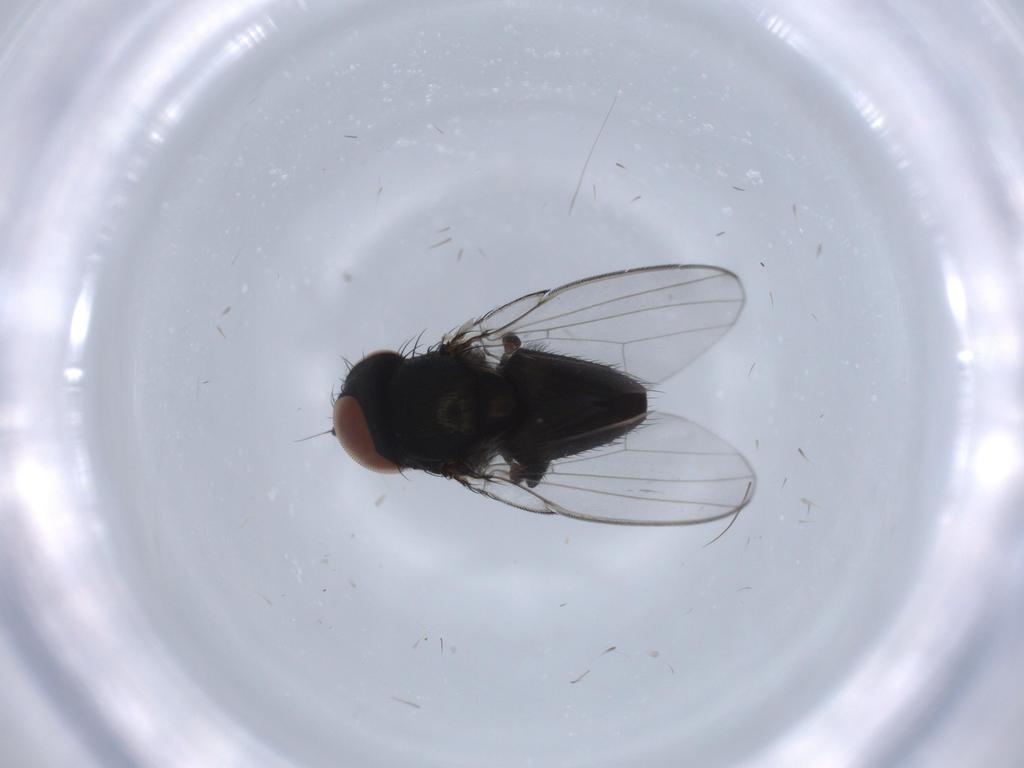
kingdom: Animalia
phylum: Arthropoda
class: Insecta
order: Diptera
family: Milichiidae
